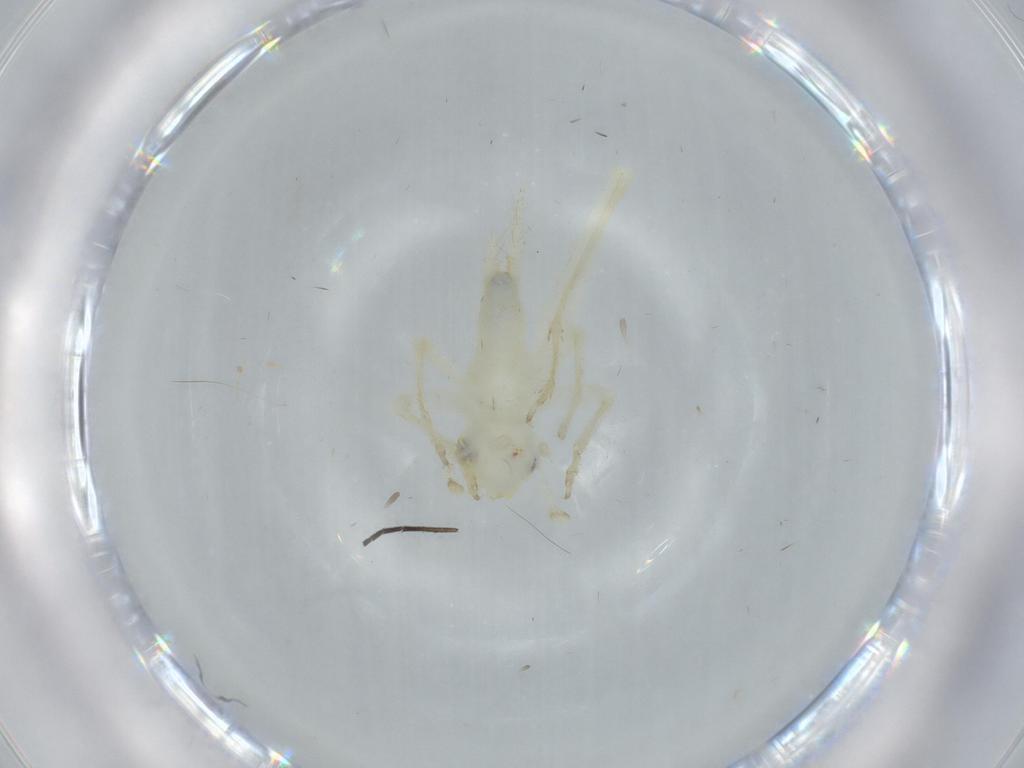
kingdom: Animalia
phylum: Arthropoda
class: Insecta
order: Orthoptera
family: Trigonidiidae
